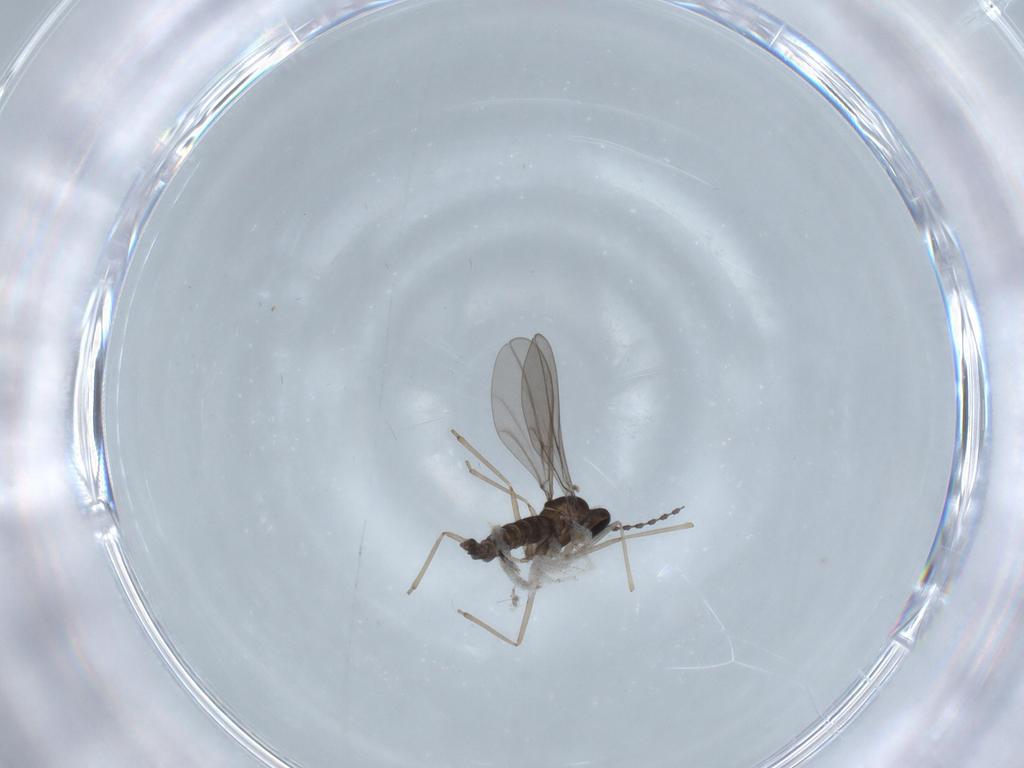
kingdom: Animalia
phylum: Arthropoda
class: Insecta
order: Diptera
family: Cecidomyiidae
